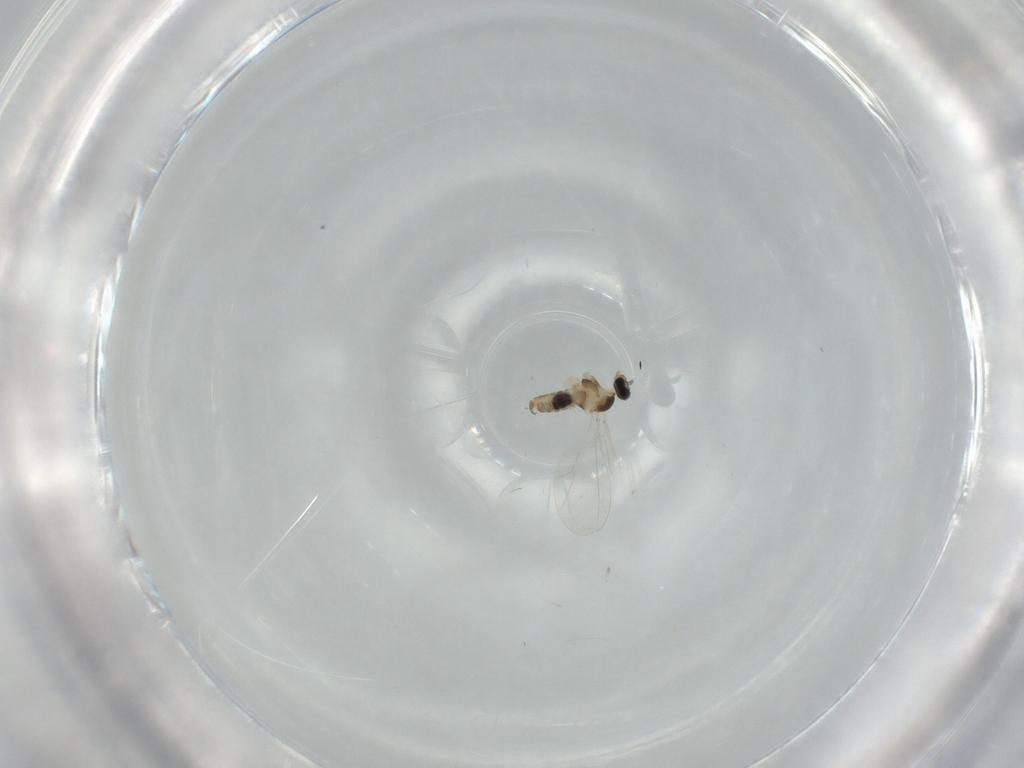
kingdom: Animalia
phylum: Arthropoda
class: Insecta
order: Diptera
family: Cecidomyiidae
